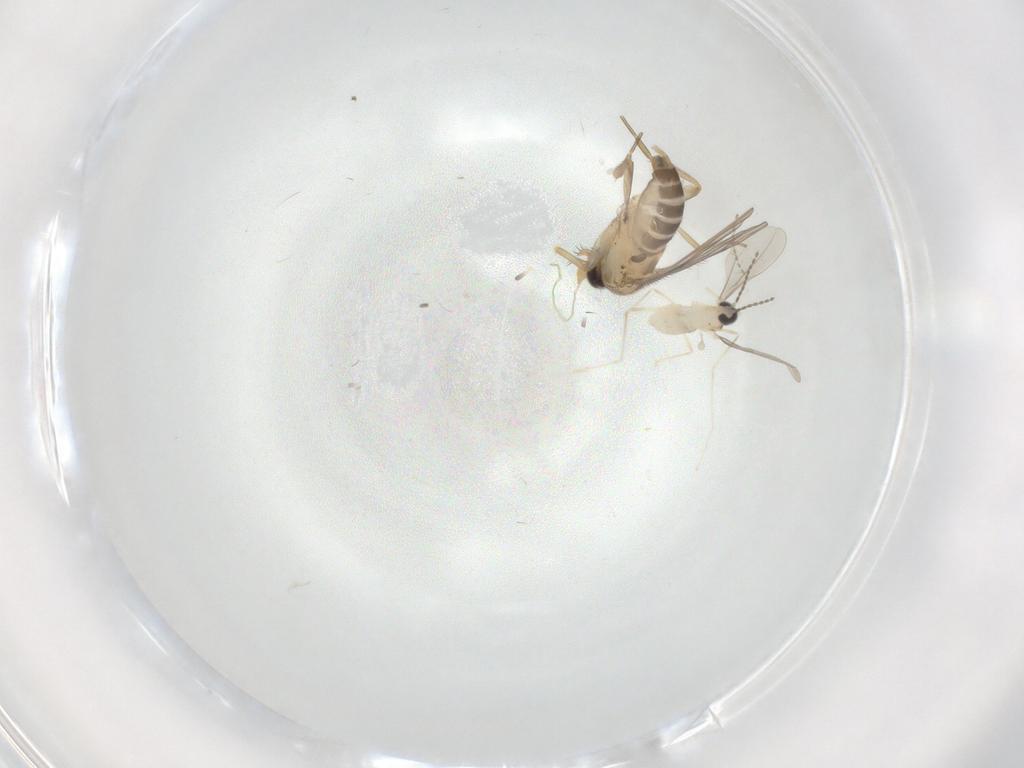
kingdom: Animalia
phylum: Arthropoda
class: Insecta
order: Diptera
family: Cecidomyiidae
